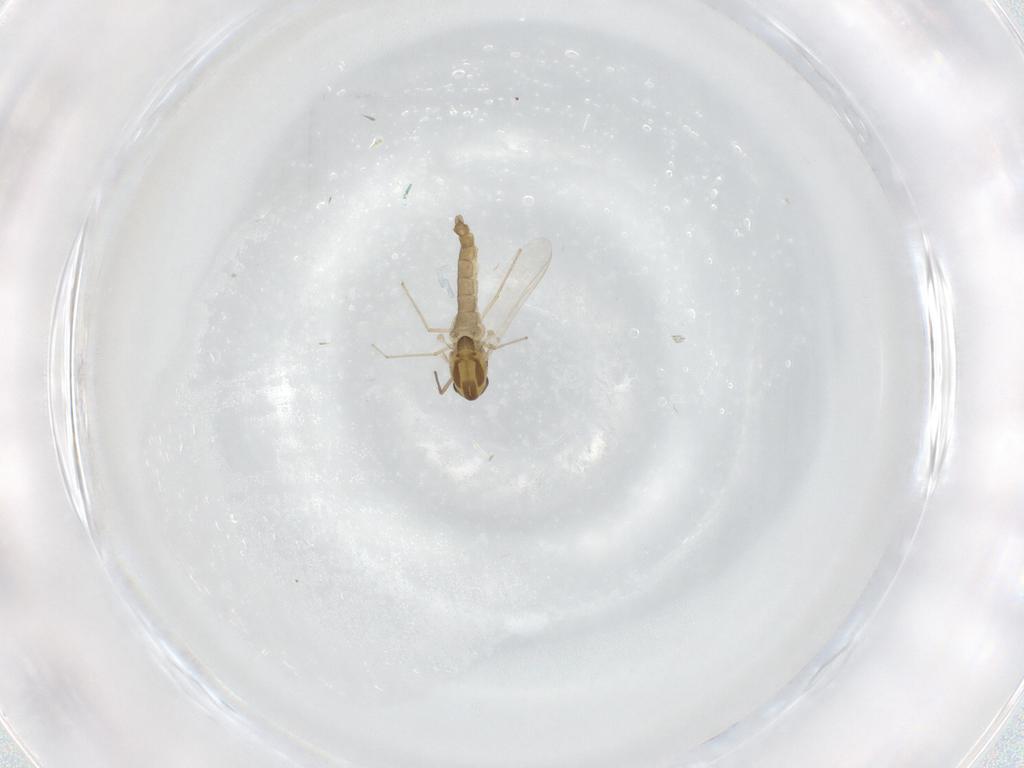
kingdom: Animalia
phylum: Arthropoda
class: Insecta
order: Diptera
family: Chironomidae
